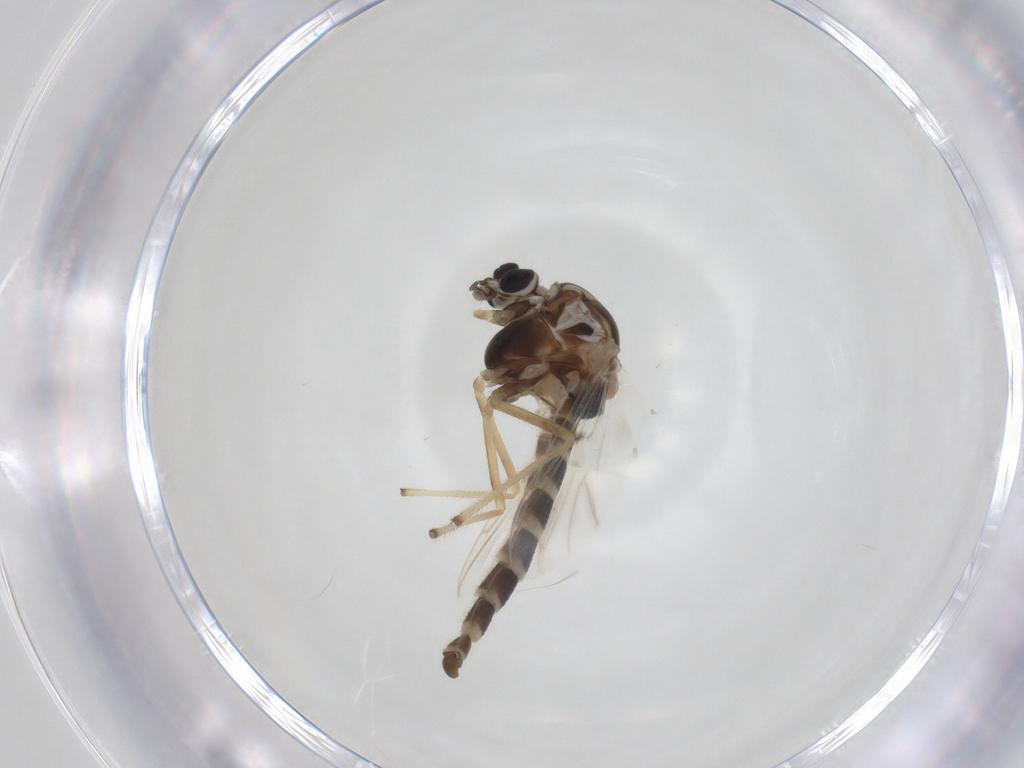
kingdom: Animalia
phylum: Arthropoda
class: Insecta
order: Diptera
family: Chironomidae
